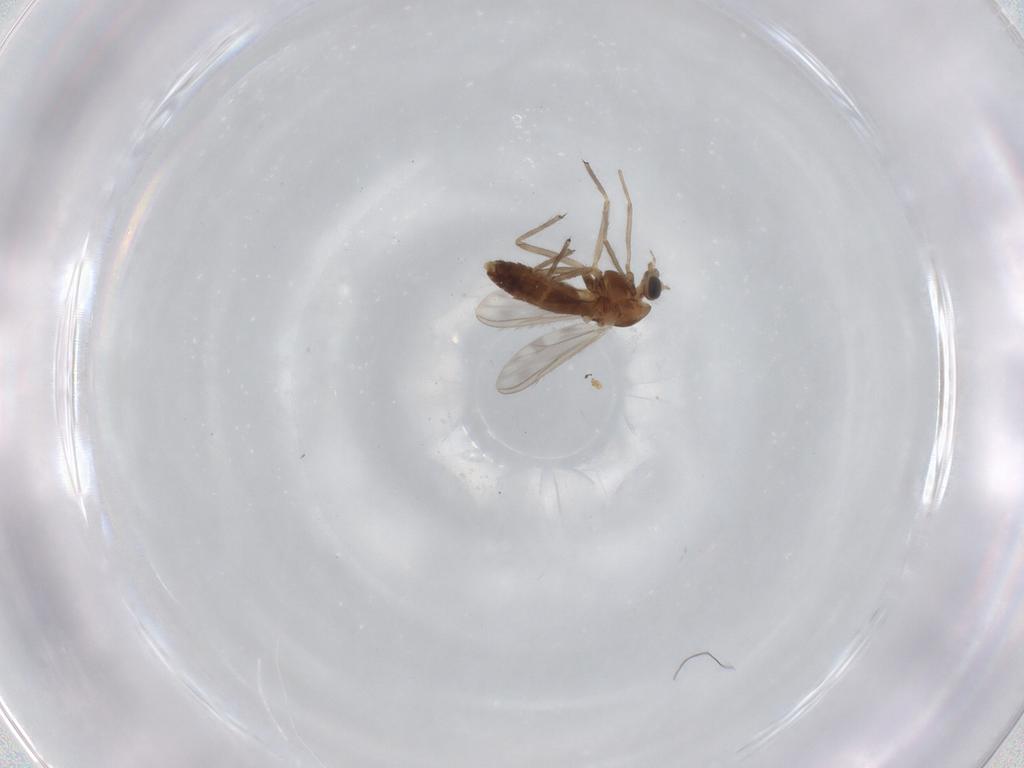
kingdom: Animalia
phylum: Arthropoda
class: Insecta
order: Diptera
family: Chironomidae
